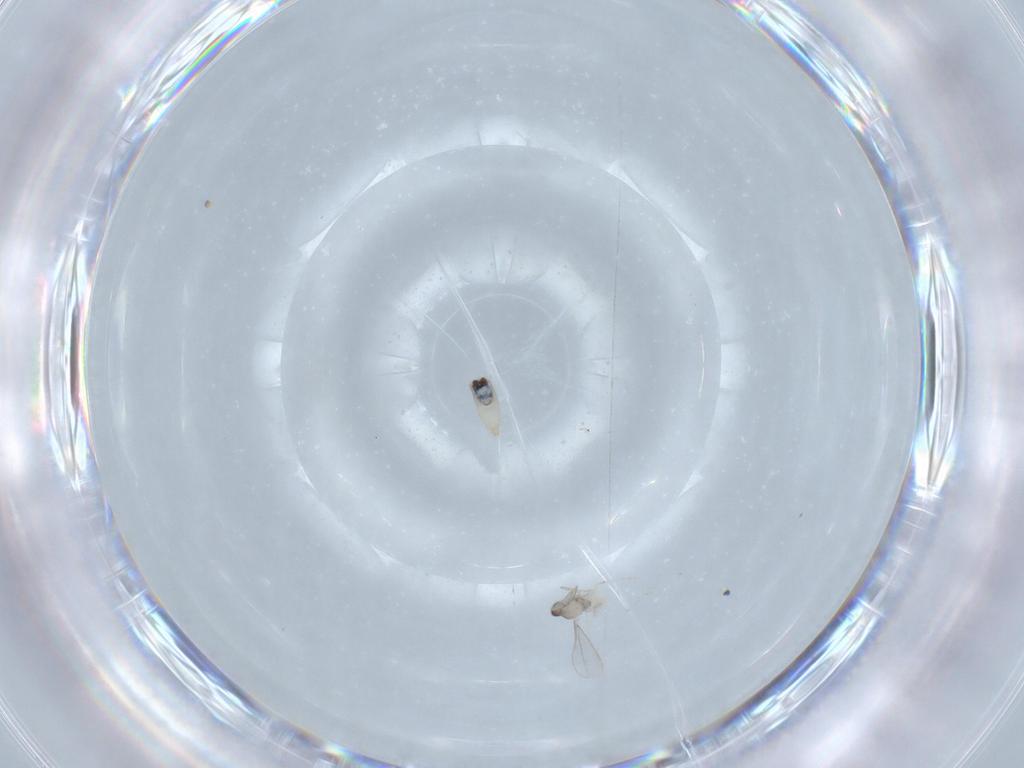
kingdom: Animalia
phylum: Arthropoda
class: Insecta
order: Diptera
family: Cecidomyiidae
